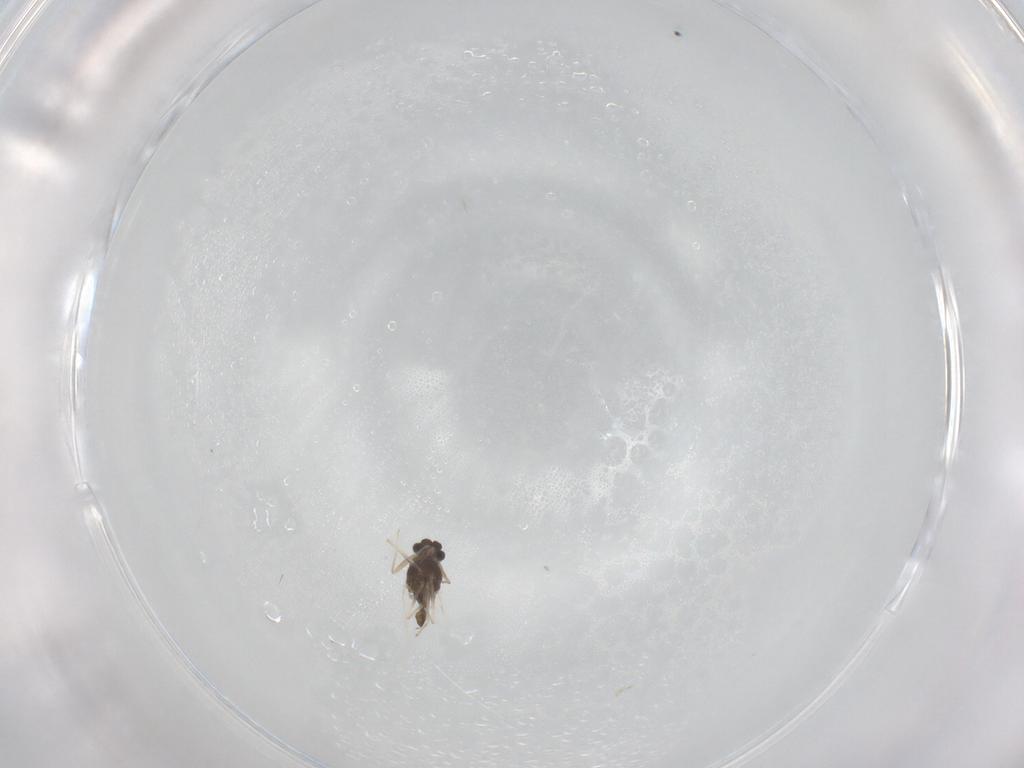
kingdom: Animalia
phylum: Arthropoda
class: Insecta
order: Diptera
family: Chironomidae
